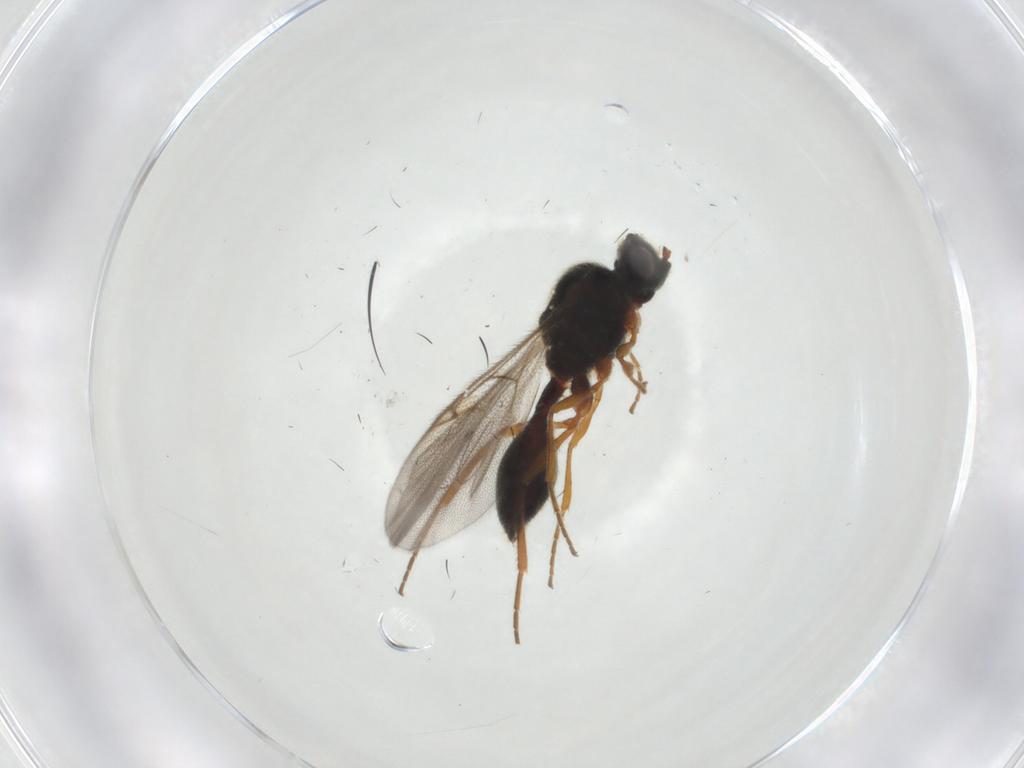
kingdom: Animalia
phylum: Arthropoda
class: Insecta
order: Hymenoptera
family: Diapriidae
